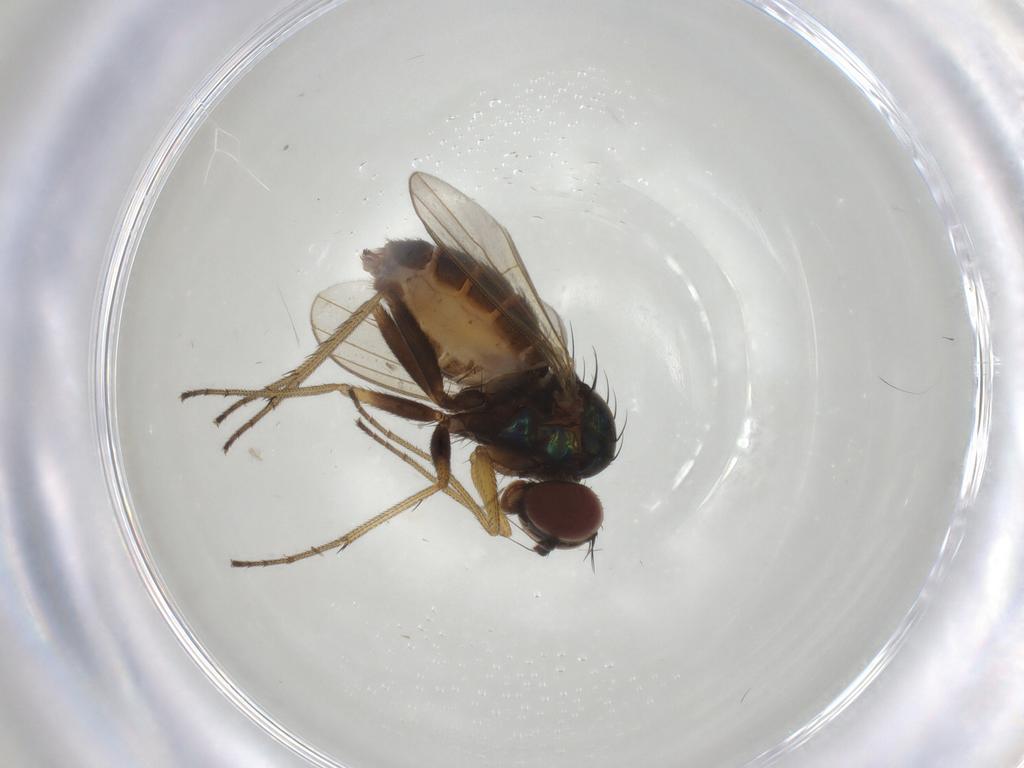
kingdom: Animalia
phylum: Arthropoda
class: Insecta
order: Diptera
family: Dolichopodidae
